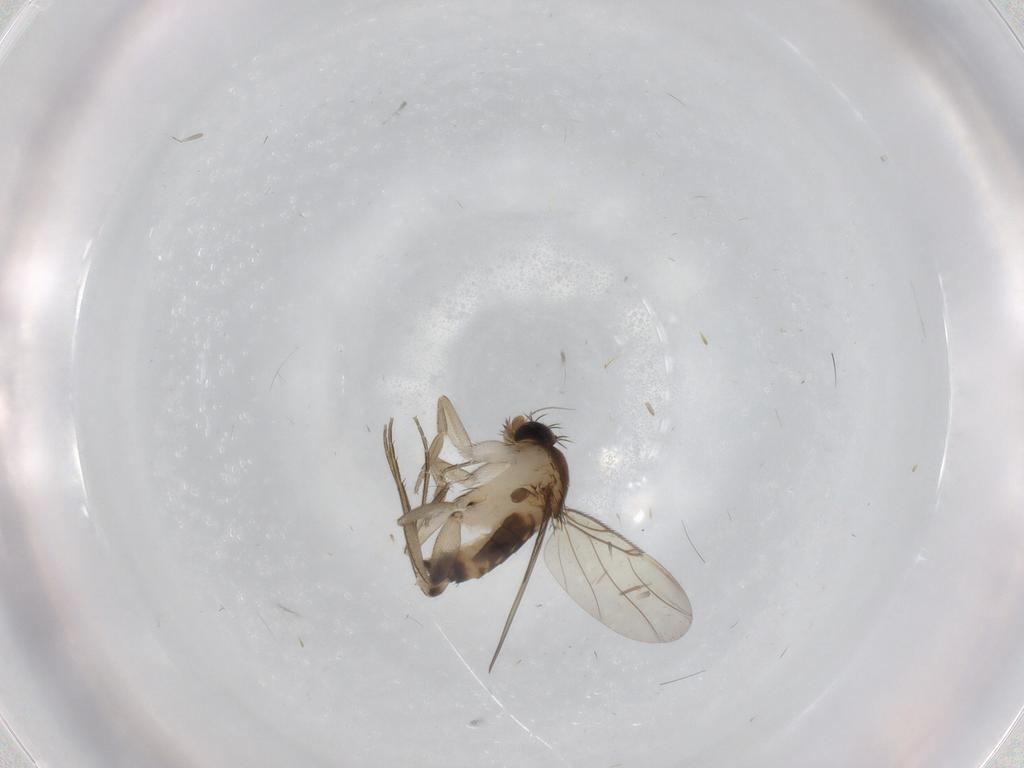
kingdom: Animalia
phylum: Arthropoda
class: Insecta
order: Diptera
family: Phoridae
